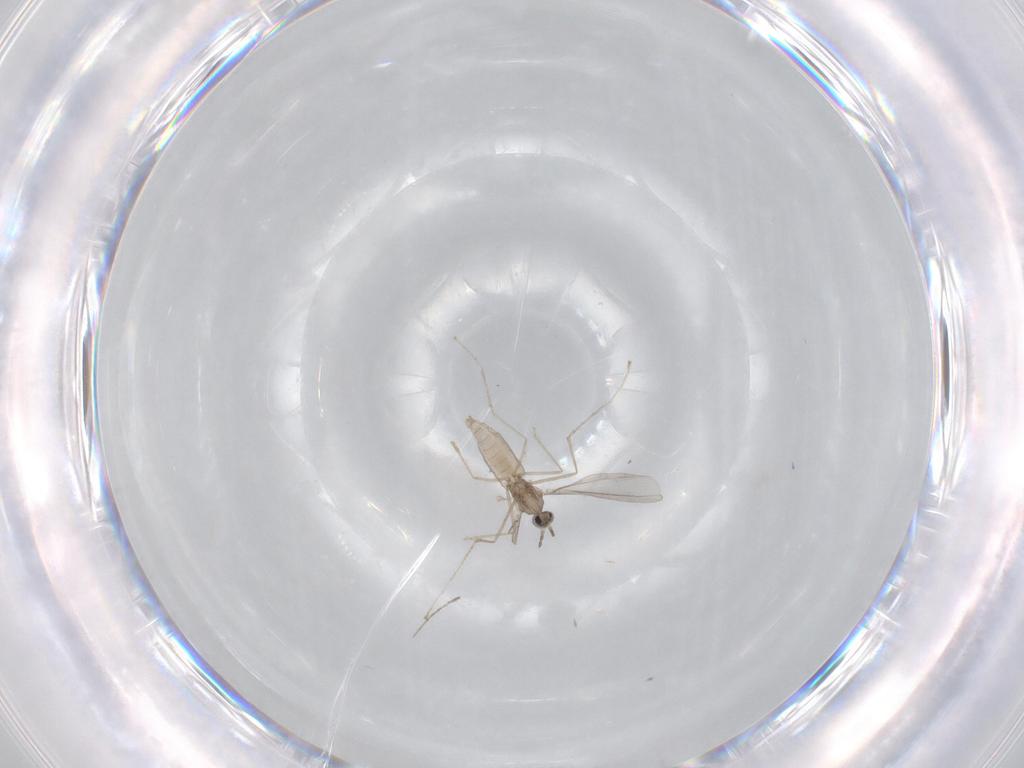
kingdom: Animalia
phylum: Arthropoda
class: Insecta
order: Diptera
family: Cecidomyiidae
